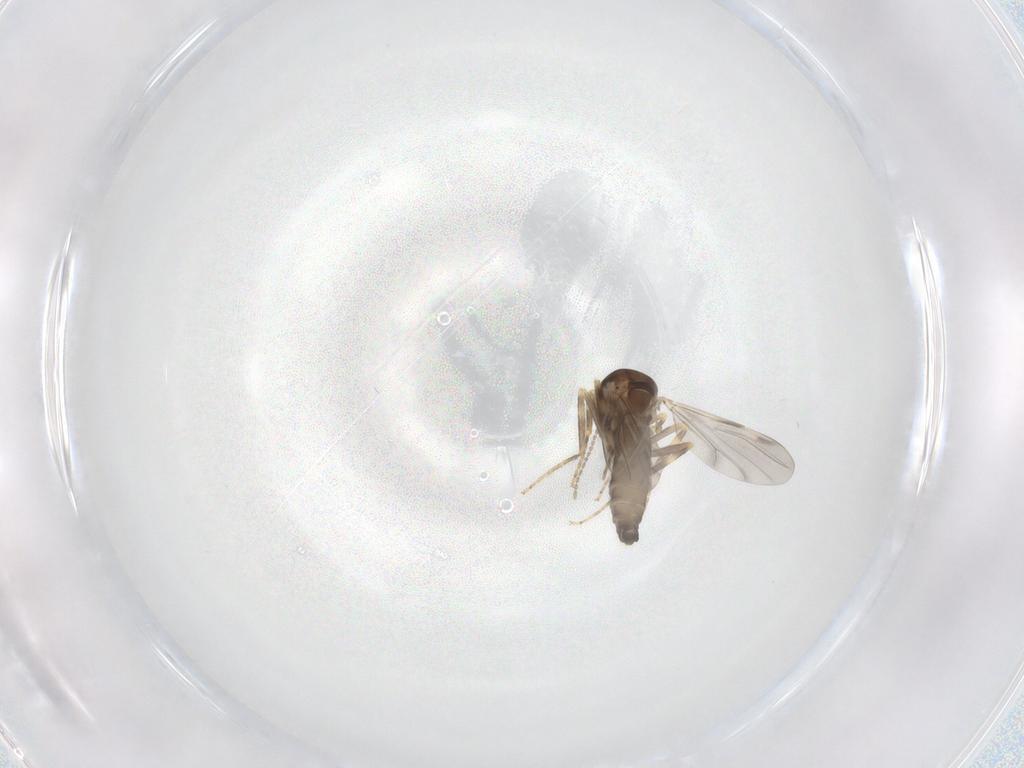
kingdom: Animalia
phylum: Arthropoda
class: Insecta
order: Diptera
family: Ceratopogonidae
